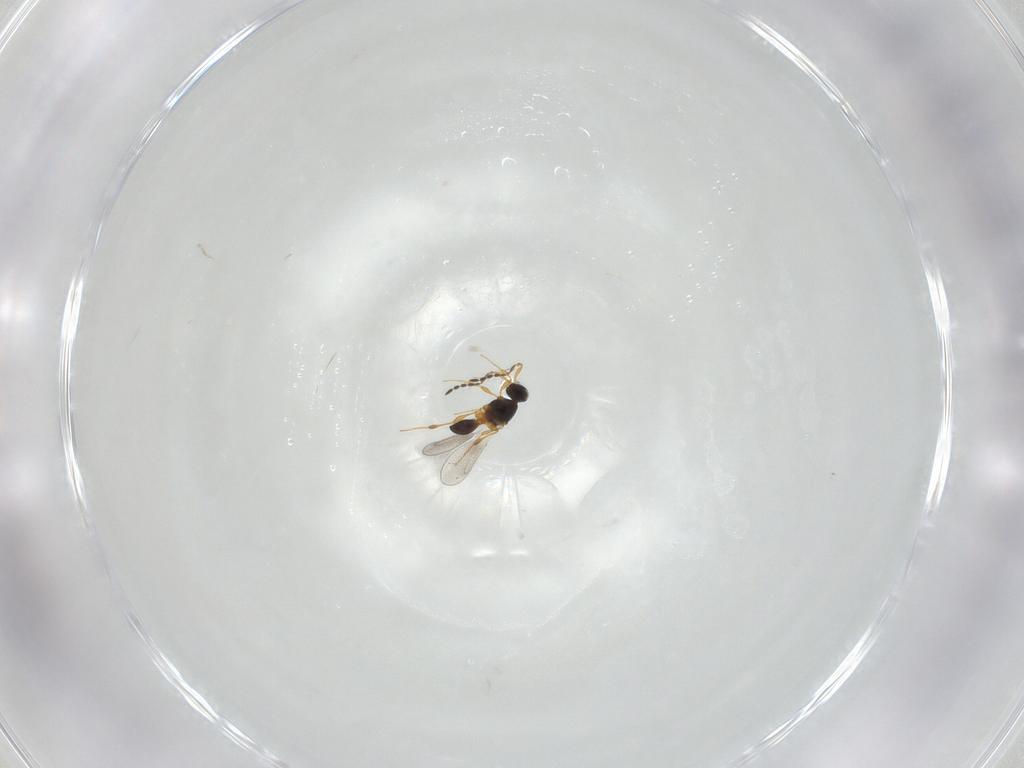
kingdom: Animalia
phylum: Arthropoda
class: Insecta
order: Hymenoptera
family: Platygastridae
